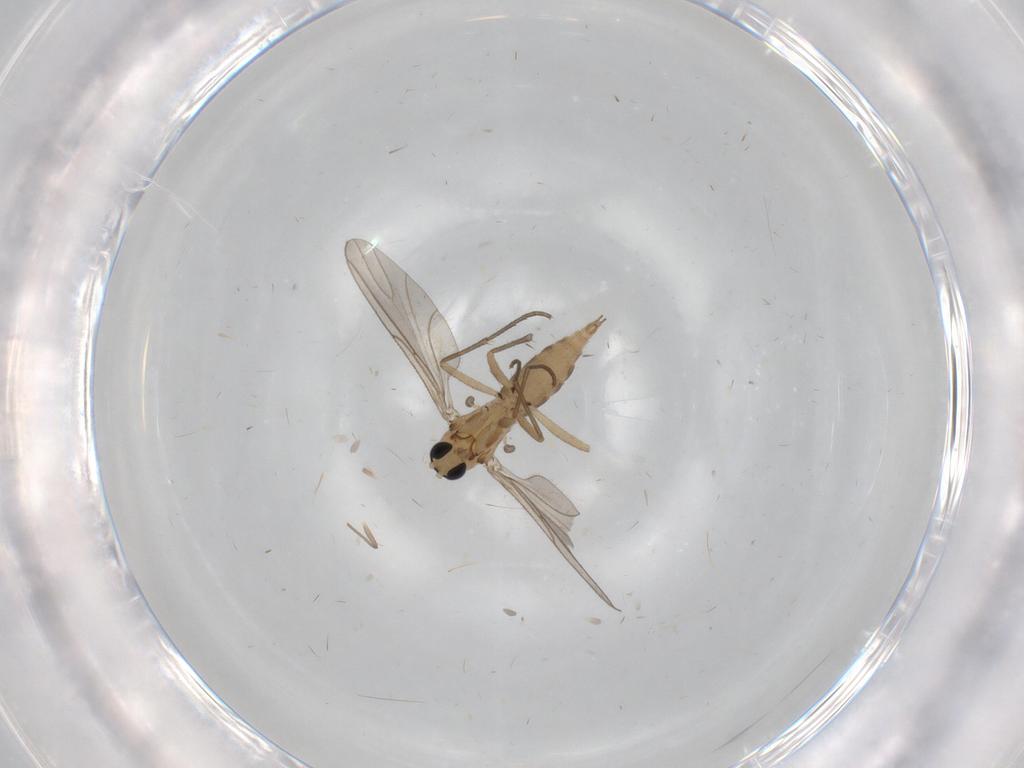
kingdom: Animalia
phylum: Arthropoda
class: Insecta
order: Diptera
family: Sciaridae
